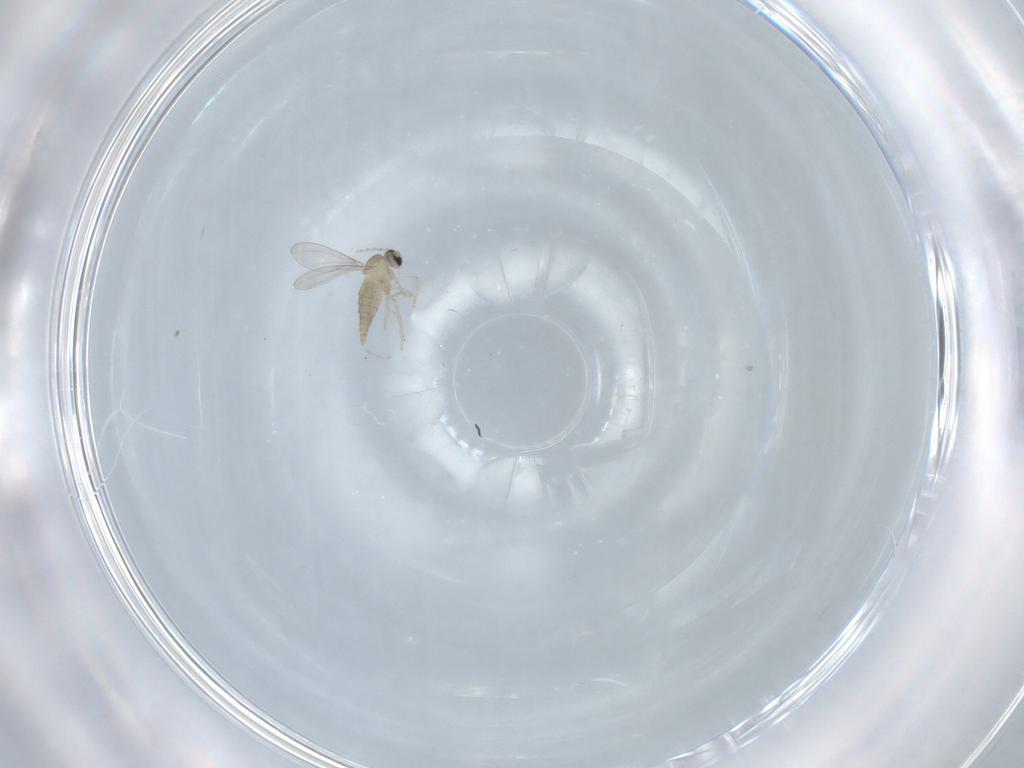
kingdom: Animalia
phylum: Arthropoda
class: Insecta
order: Diptera
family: Cecidomyiidae
